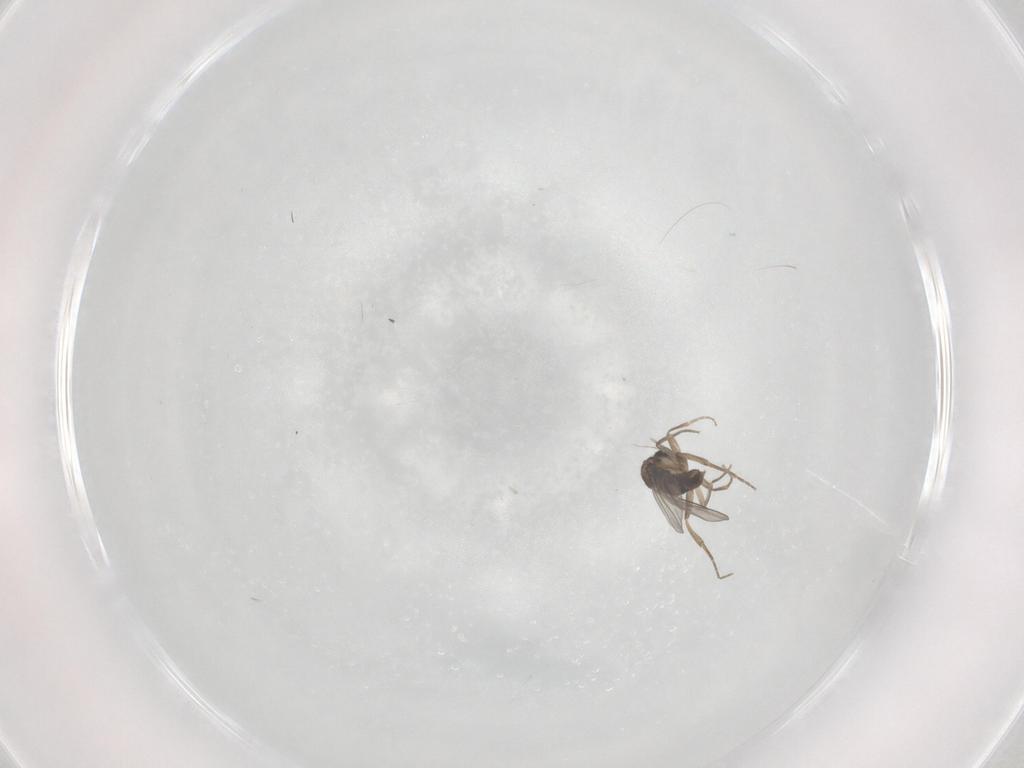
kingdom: Animalia
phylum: Arthropoda
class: Insecta
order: Diptera
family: Phoridae
